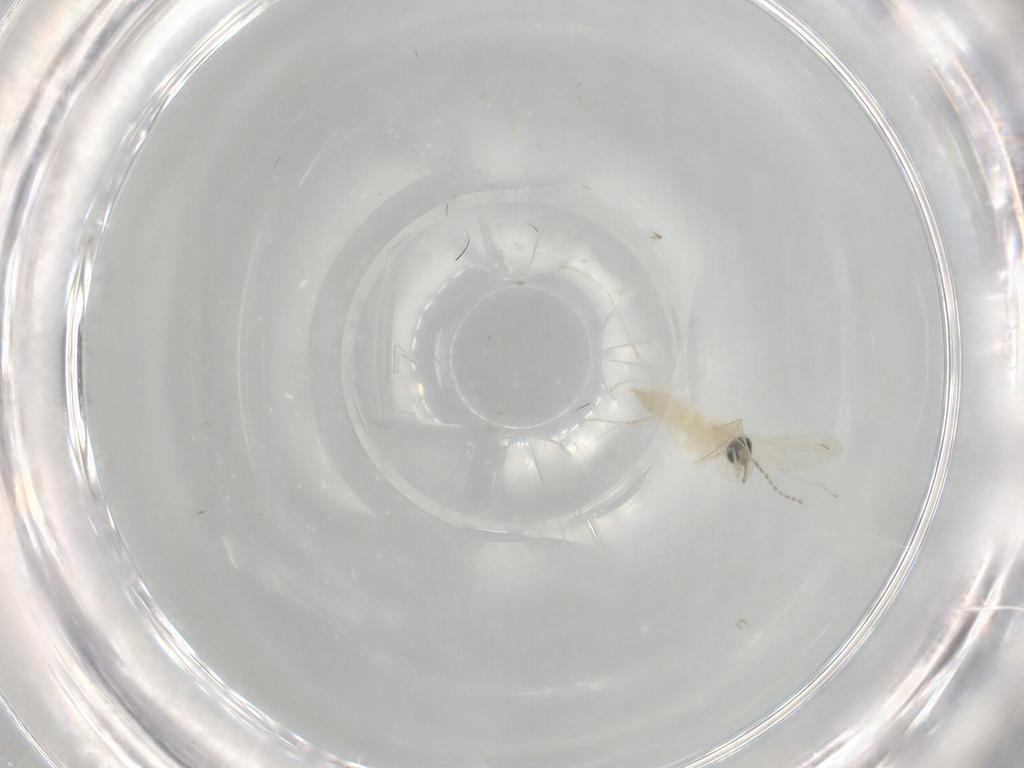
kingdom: Animalia
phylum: Arthropoda
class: Insecta
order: Diptera
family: Cecidomyiidae
